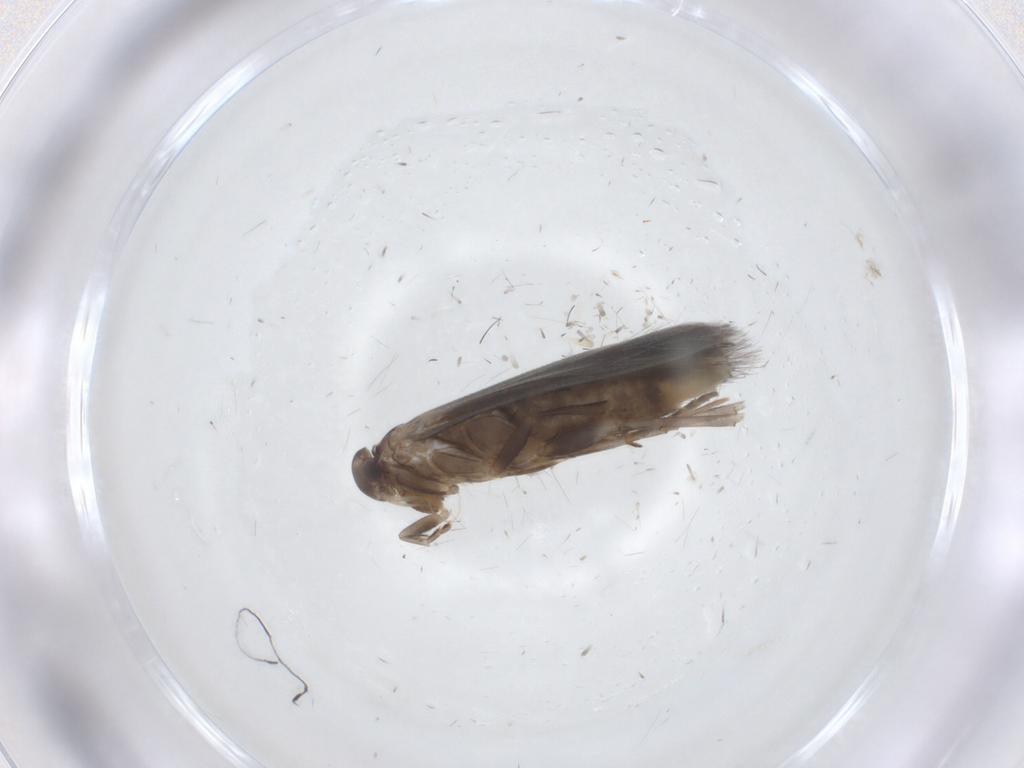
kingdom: Animalia
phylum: Arthropoda
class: Insecta
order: Lepidoptera
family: Elachistidae
